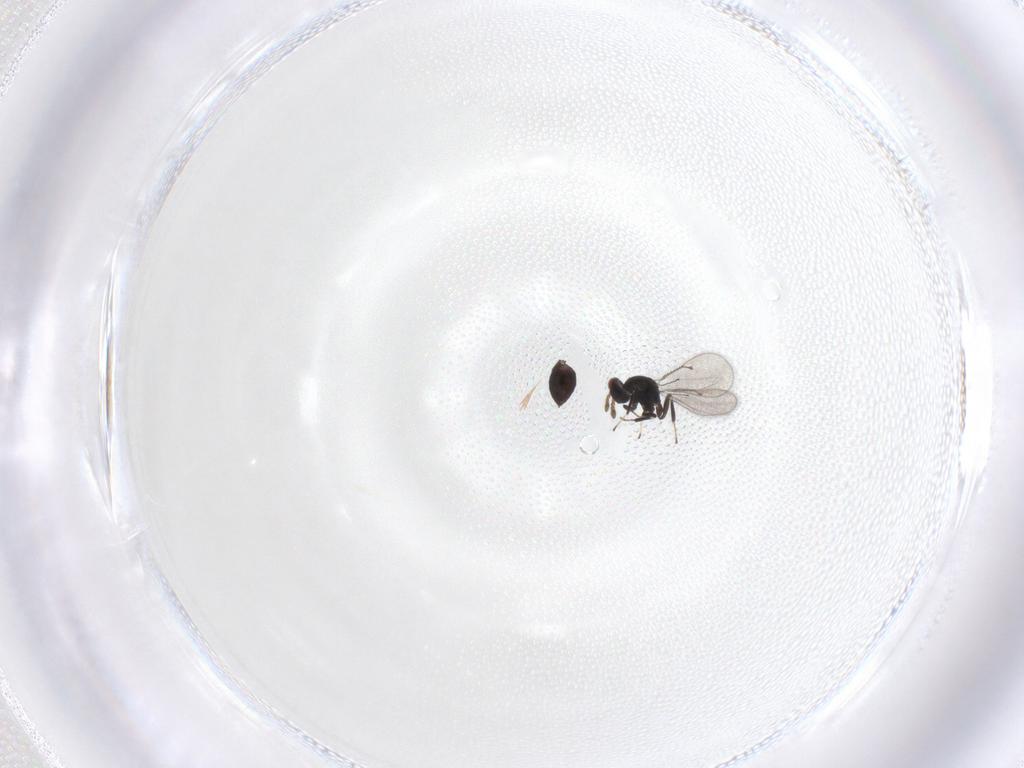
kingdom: Animalia
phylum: Arthropoda
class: Insecta
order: Hymenoptera
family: Eulophidae
